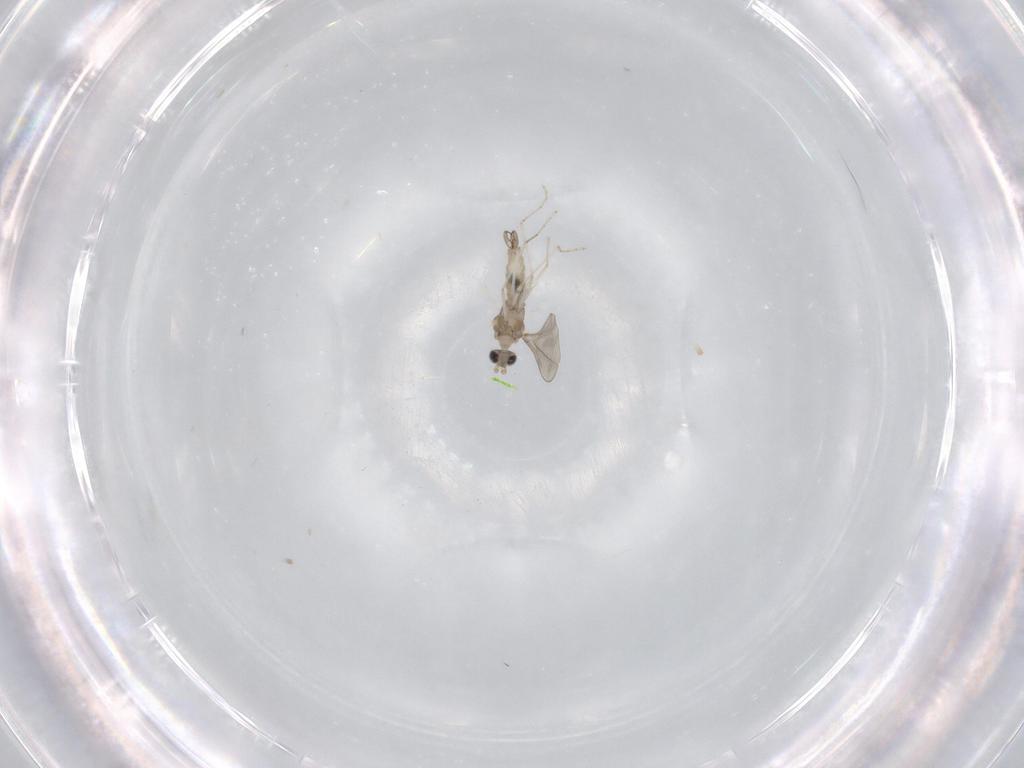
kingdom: Animalia
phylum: Arthropoda
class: Insecta
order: Diptera
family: Cecidomyiidae
